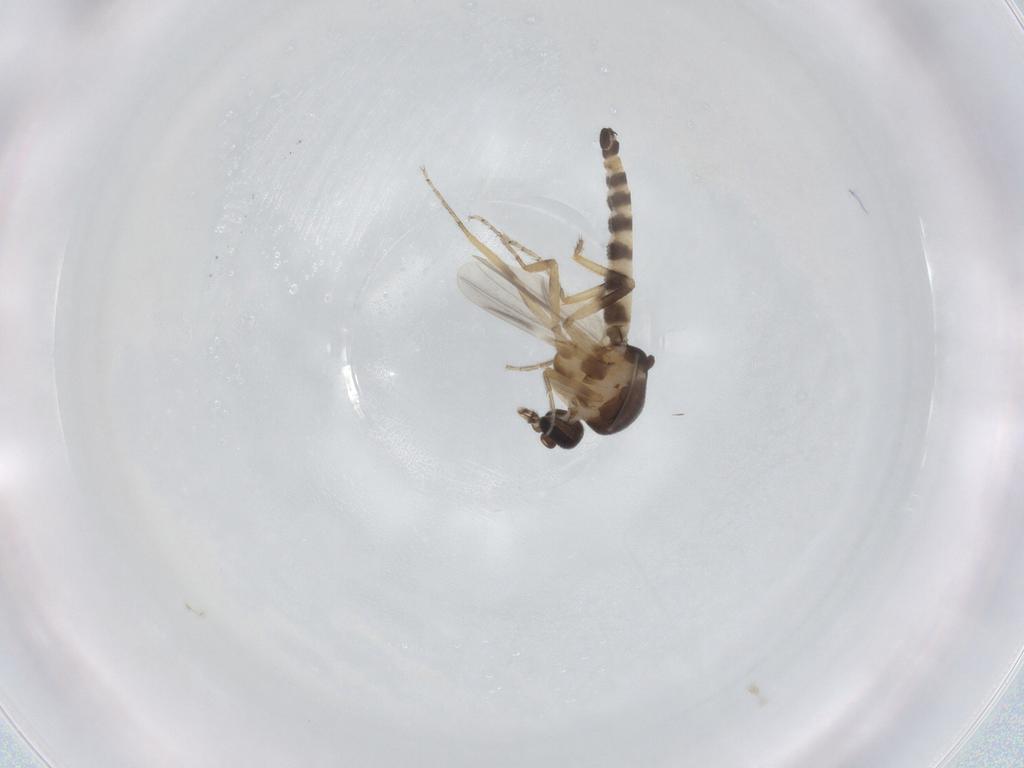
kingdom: Animalia
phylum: Arthropoda
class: Insecta
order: Diptera
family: Ceratopogonidae
